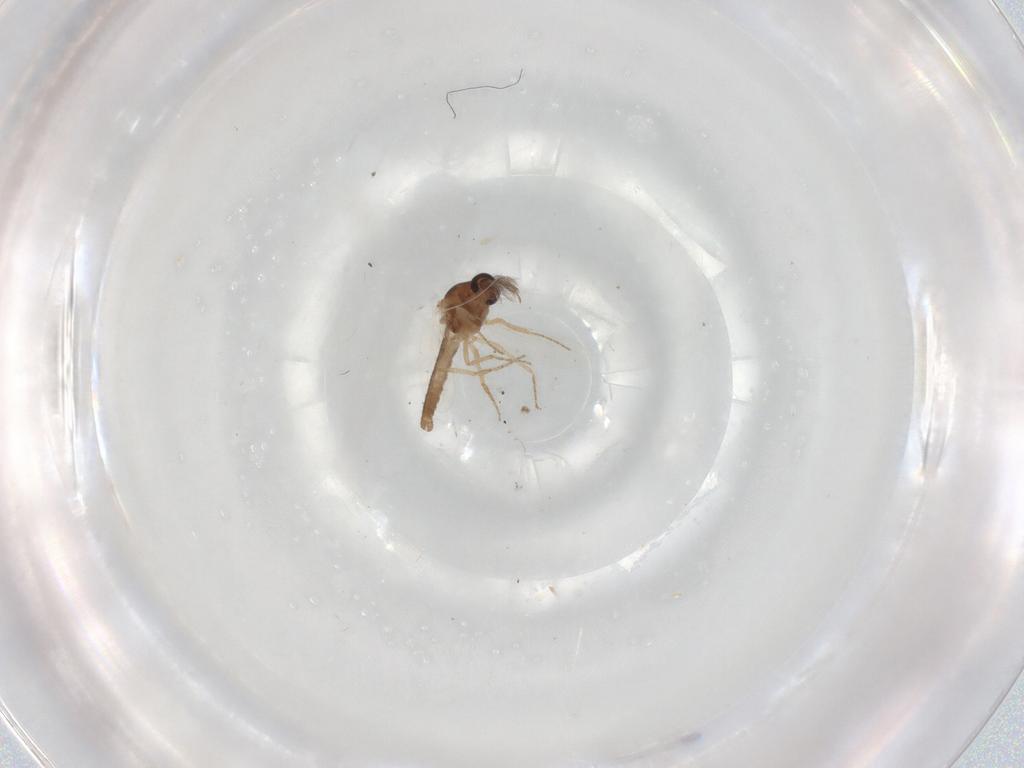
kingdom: Animalia
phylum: Arthropoda
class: Insecta
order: Diptera
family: Ceratopogonidae
